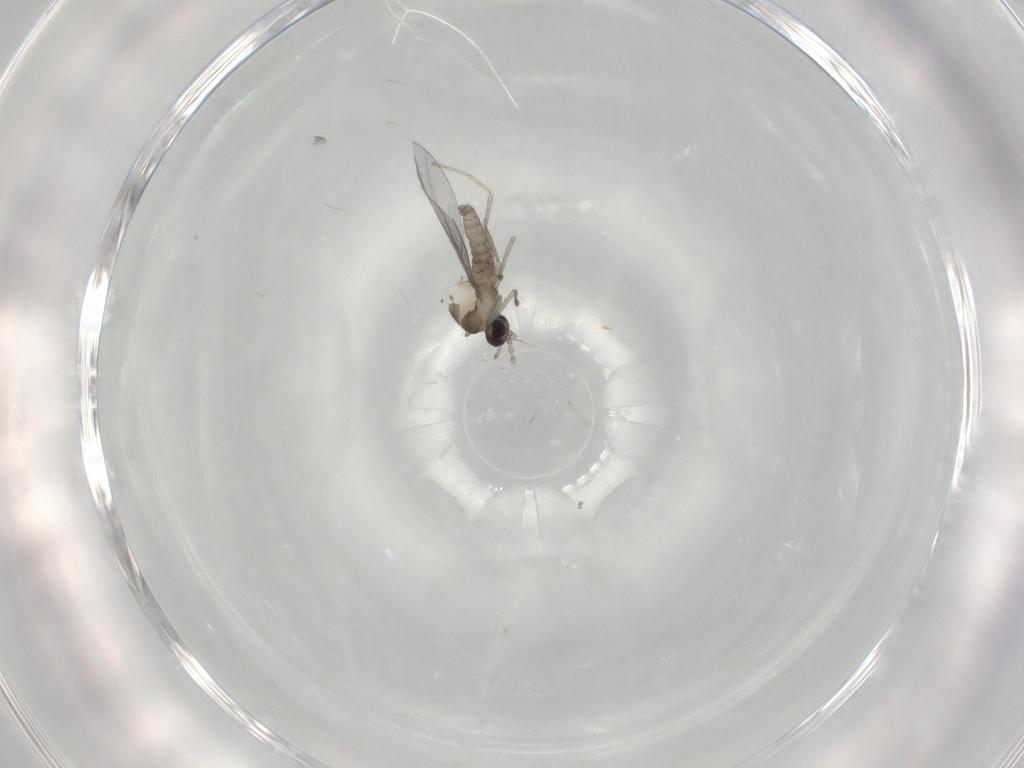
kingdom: Animalia
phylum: Arthropoda
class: Insecta
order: Diptera
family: Cecidomyiidae
